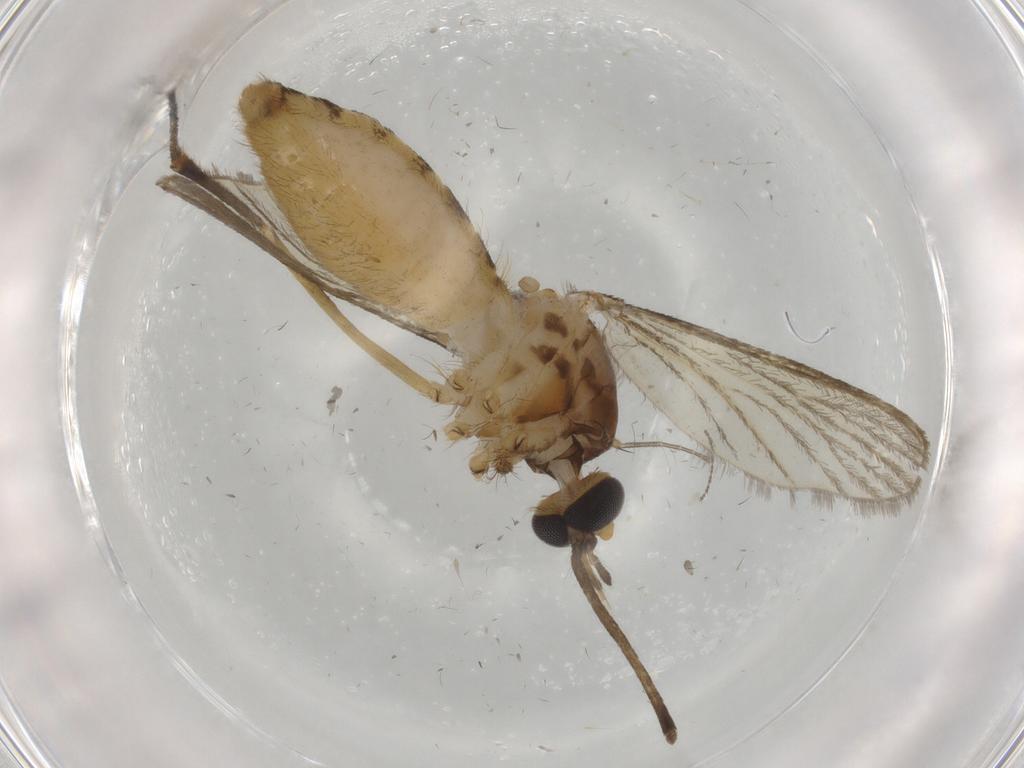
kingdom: Animalia
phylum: Arthropoda
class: Insecta
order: Diptera
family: Culicidae
